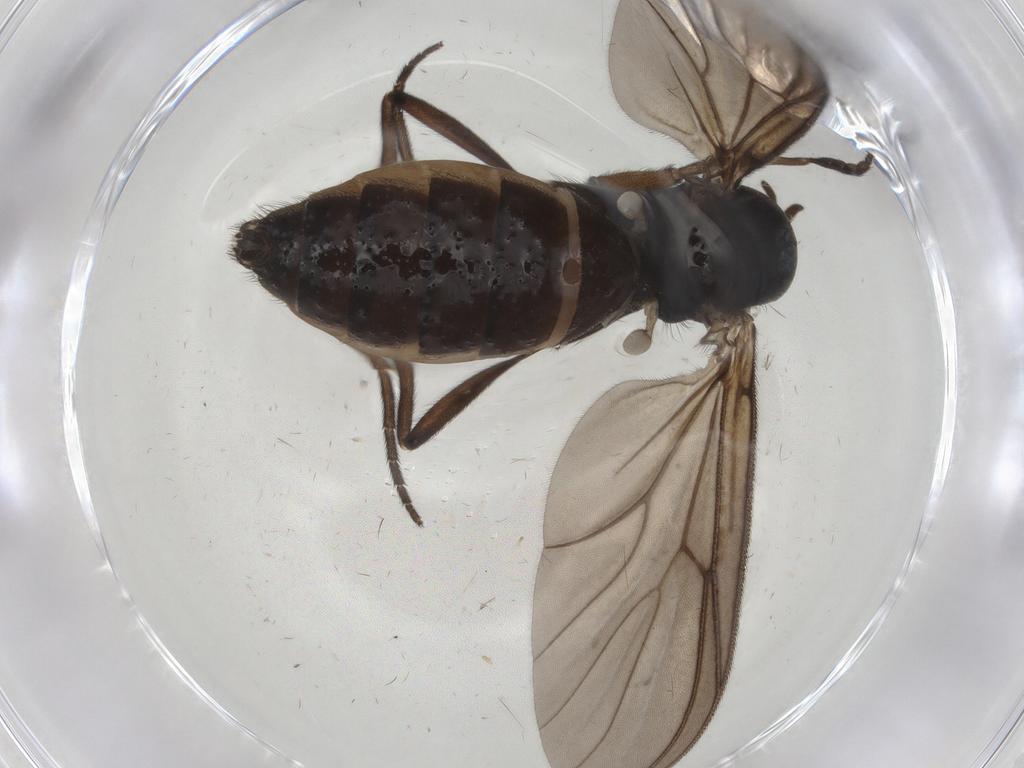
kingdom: Animalia
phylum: Arthropoda
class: Insecta
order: Diptera
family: Mycetophilidae
